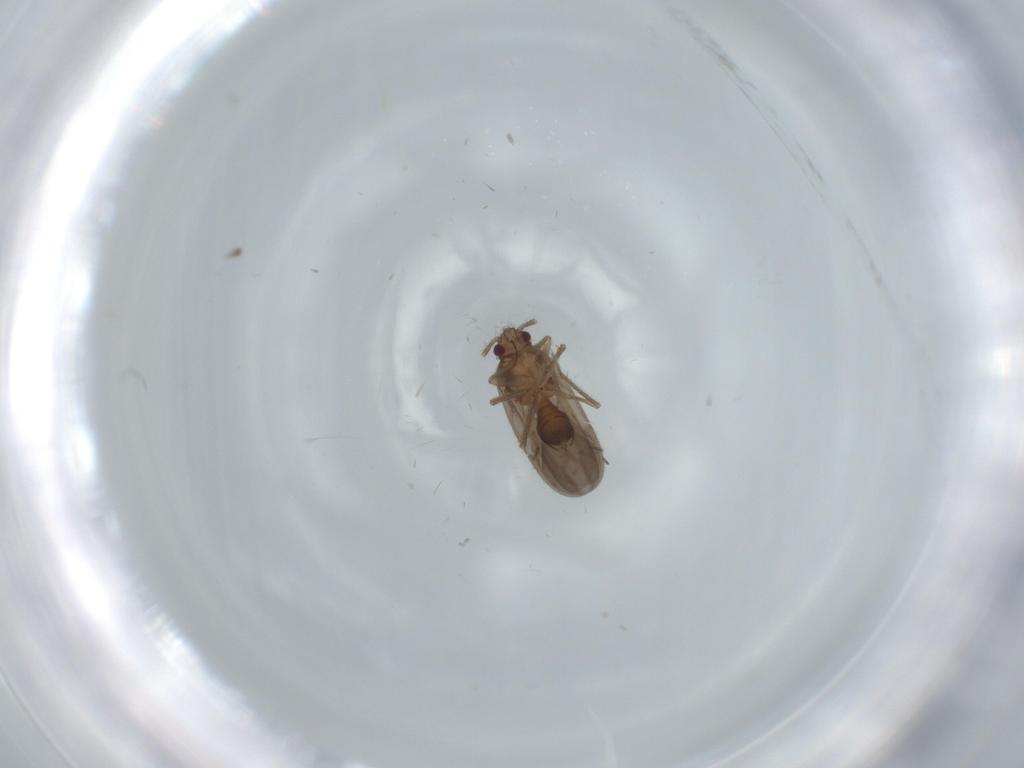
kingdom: Animalia
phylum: Arthropoda
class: Insecta
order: Hemiptera
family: Ceratocombidae
